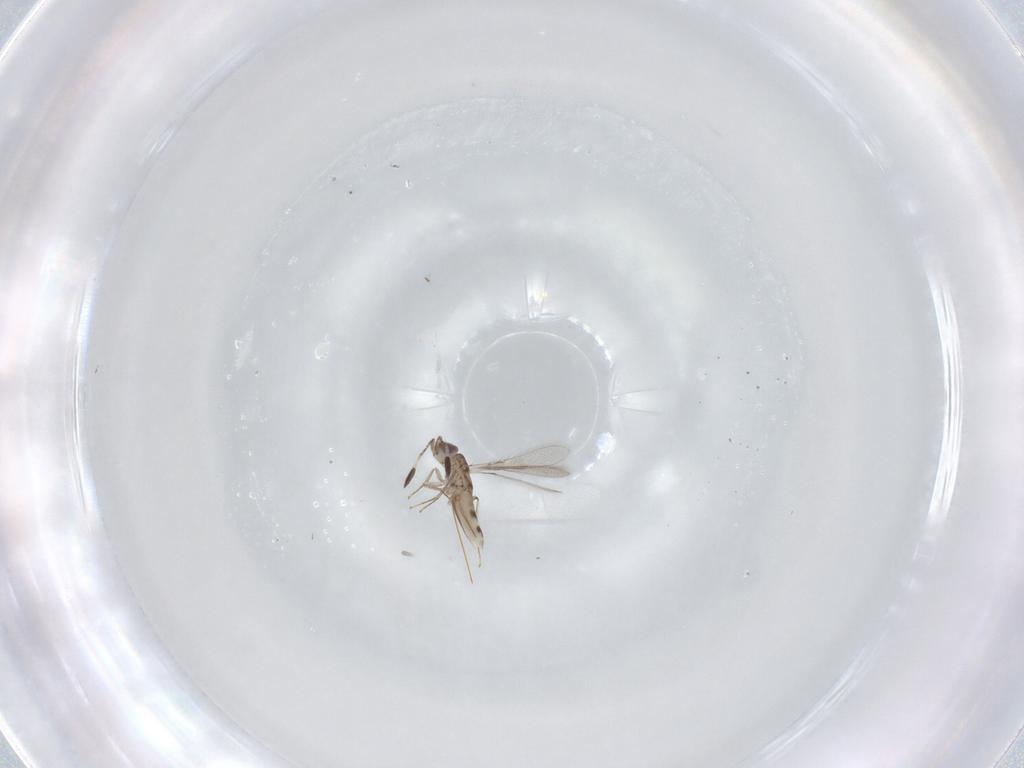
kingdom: Animalia
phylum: Arthropoda
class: Insecta
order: Hymenoptera
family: Mymaridae
